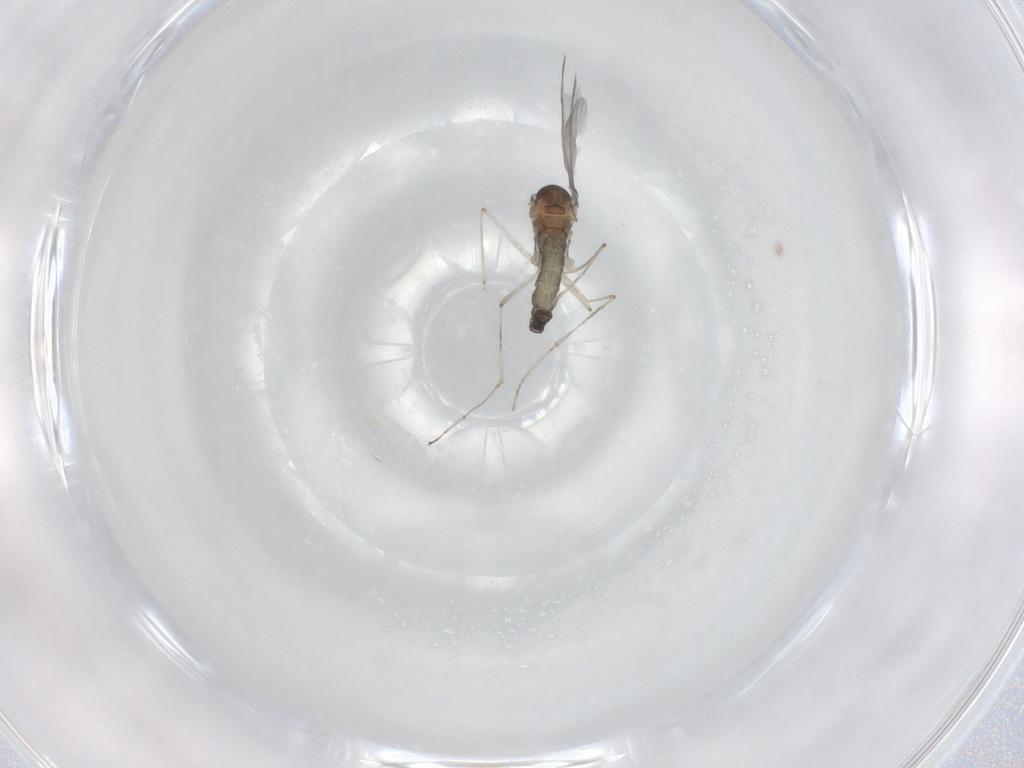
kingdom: Animalia
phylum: Arthropoda
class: Insecta
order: Diptera
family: Cecidomyiidae
